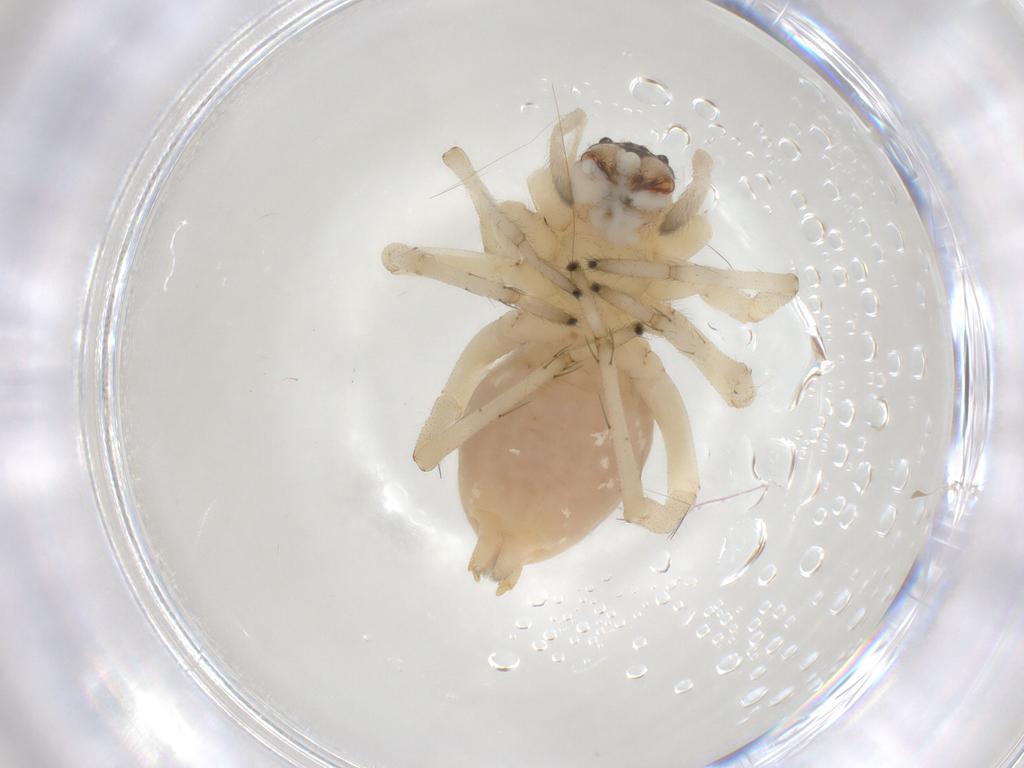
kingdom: Animalia
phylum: Arthropoda
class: Arachnida
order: Araneae
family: Cheiracanthiidae
